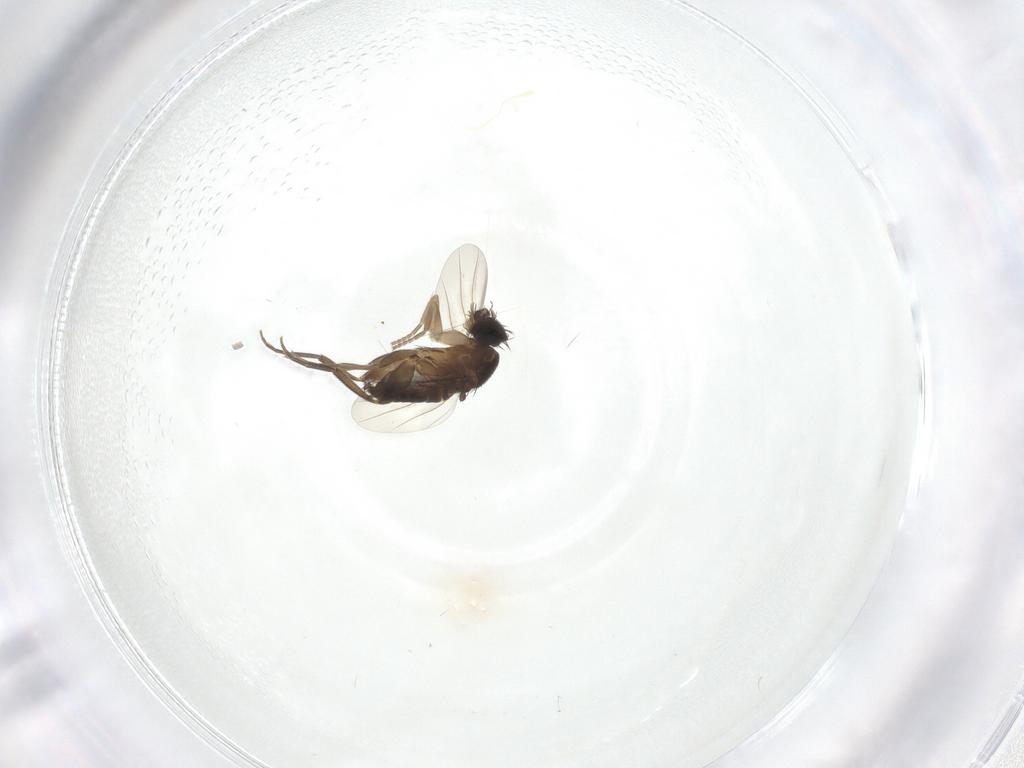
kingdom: Animalia
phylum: Arthropoda
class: Insecta
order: Diptera
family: Phoridae
